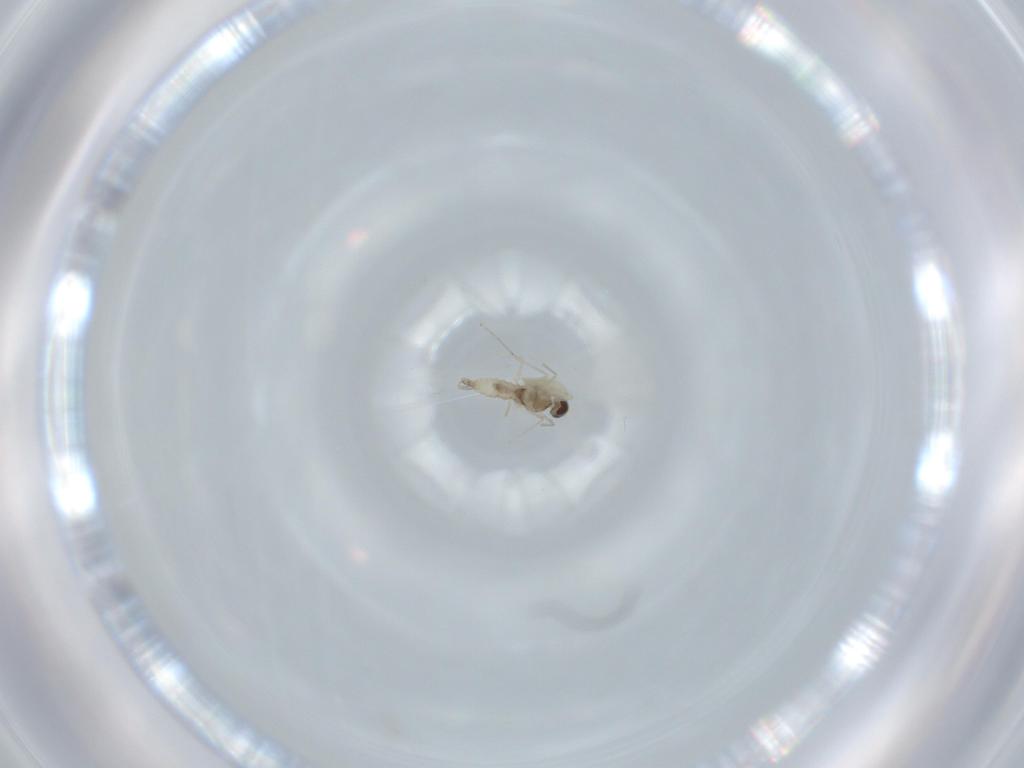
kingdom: Animalia
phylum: Arthropoda
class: Insecta
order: Diptera
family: Cecidomyiidae
